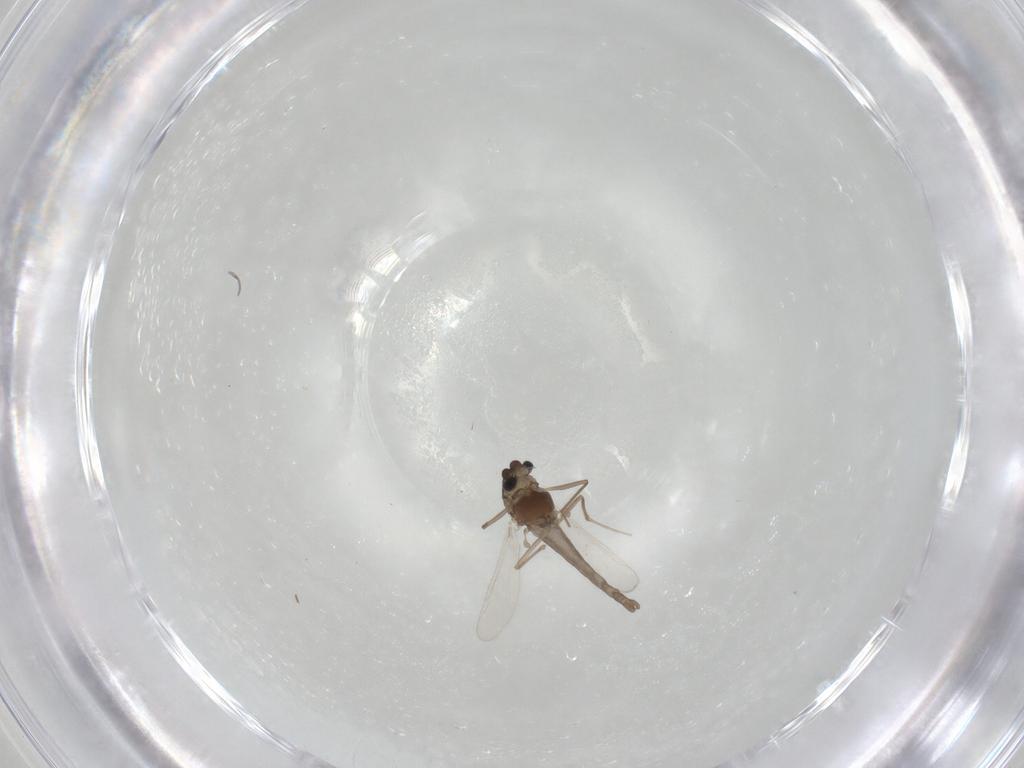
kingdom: Animalia
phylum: Arthropoda
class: Insecta
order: Diptera
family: Chironomidae
